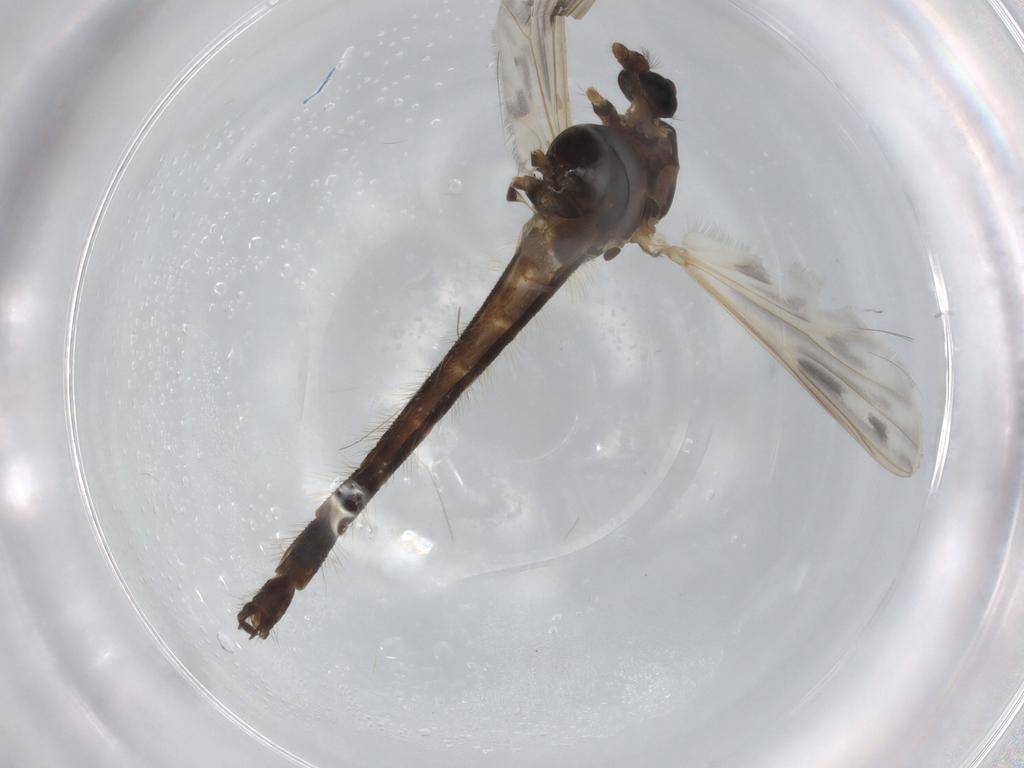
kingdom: Animalia
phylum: Arthropoda
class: Insecta
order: Diptera
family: Cecidomyiidae
